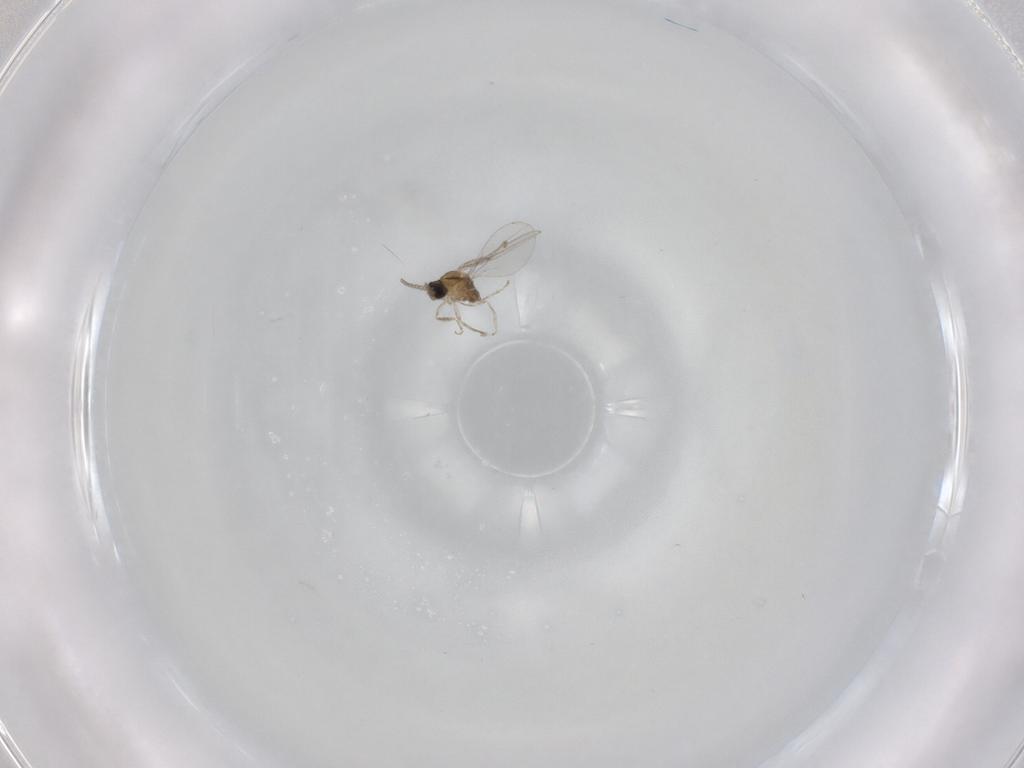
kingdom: Animalia
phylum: Arthropoda
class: Insecta
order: Diptera
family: Cecidomyiidae
